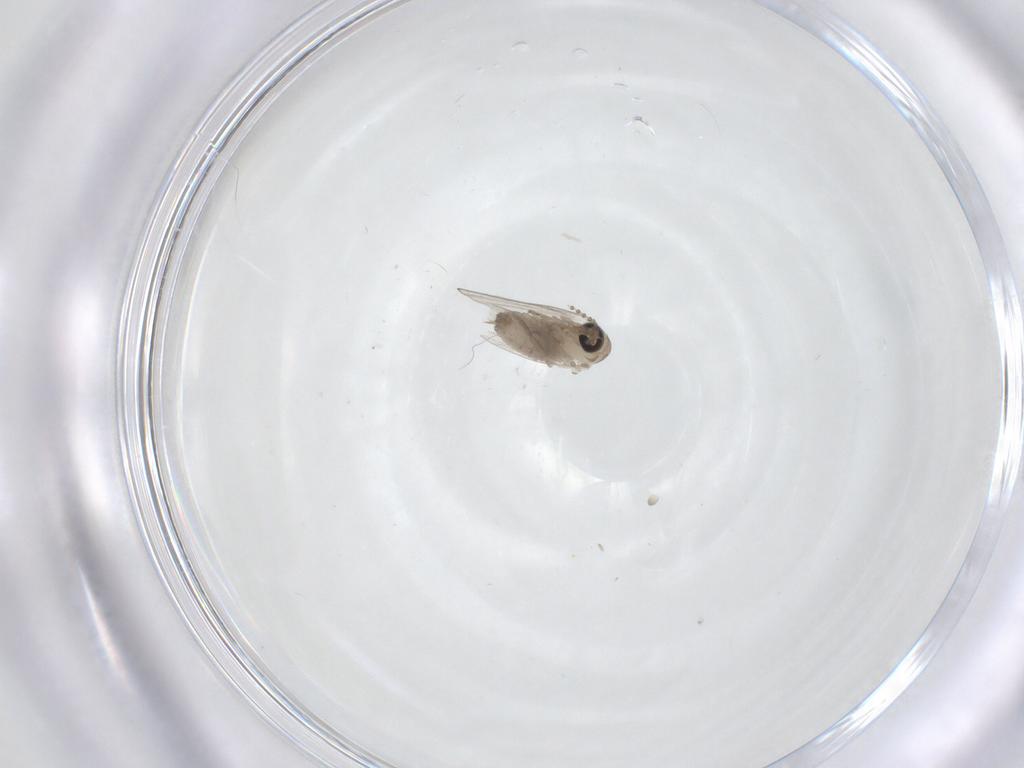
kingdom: Animalia
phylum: Arthropoda
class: Insecta
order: Diptera
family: Psychodidae
